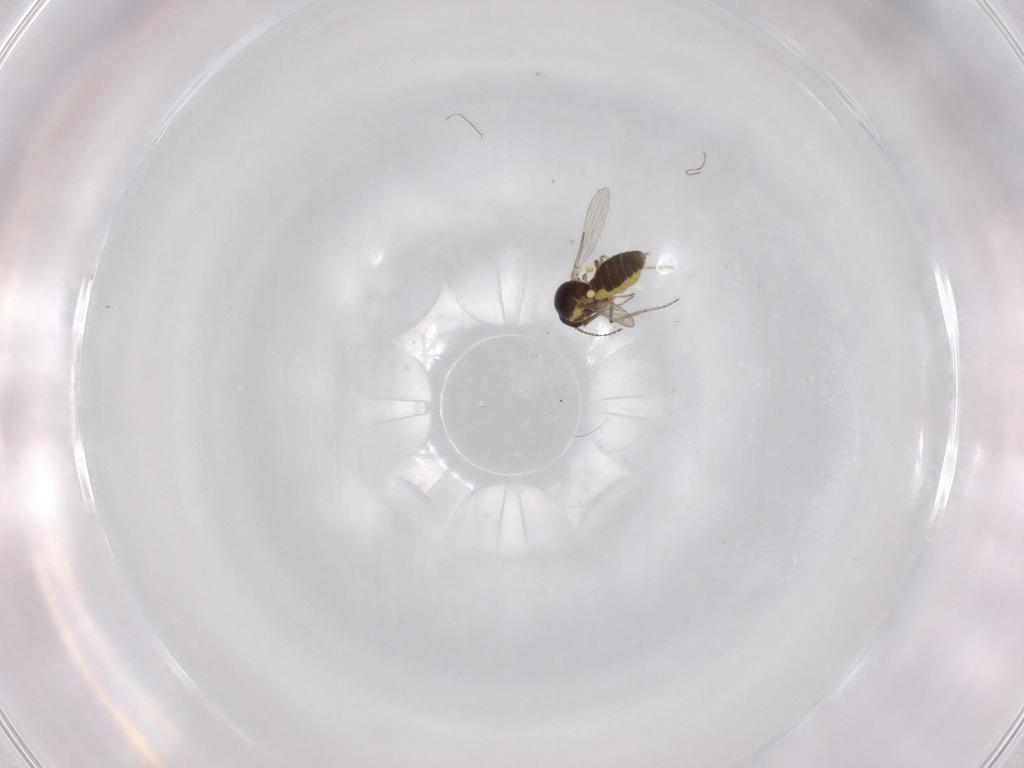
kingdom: Animalia
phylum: Arthropoda
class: Insecta
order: Diptera
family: Ceratopogonidae
